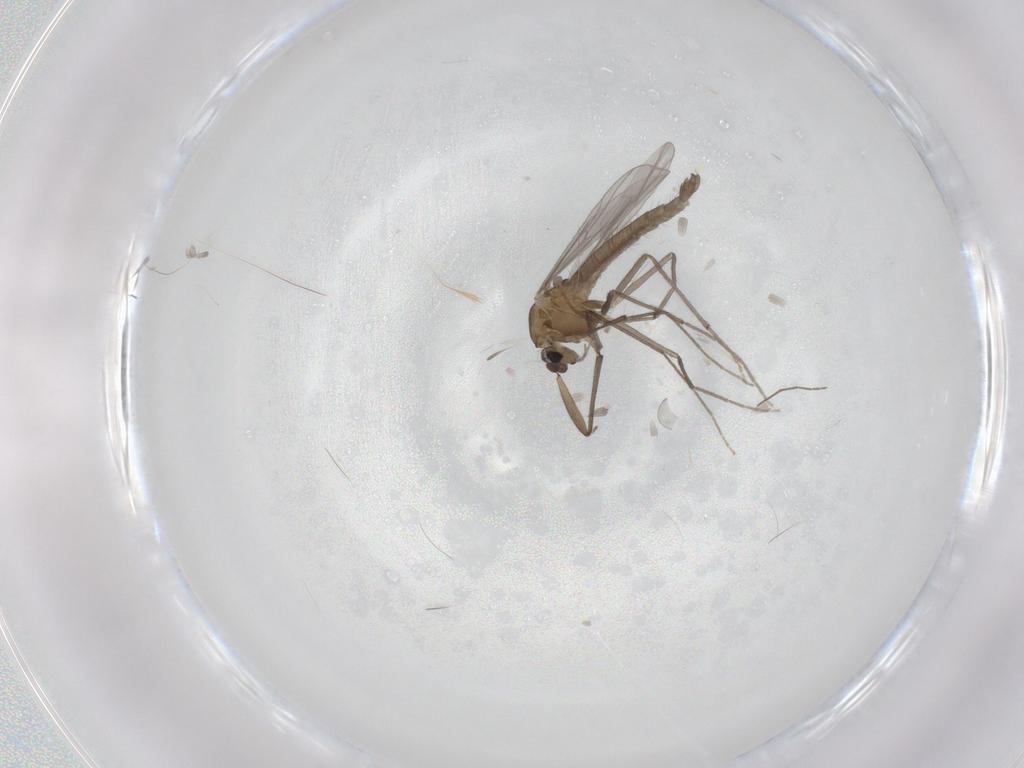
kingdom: Animalia
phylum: Arthropoda
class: Insecta
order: Diptera
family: Chironomidae
